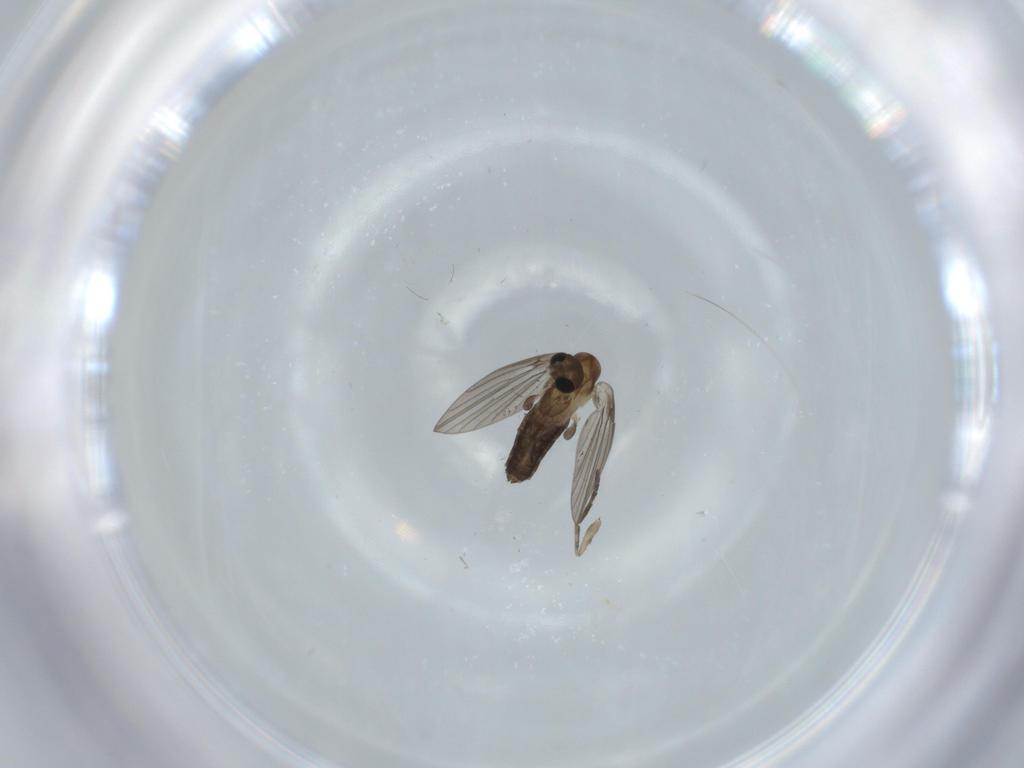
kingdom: Animalia
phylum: Arthropoda
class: Insecta
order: Diptera
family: Psychodidae
